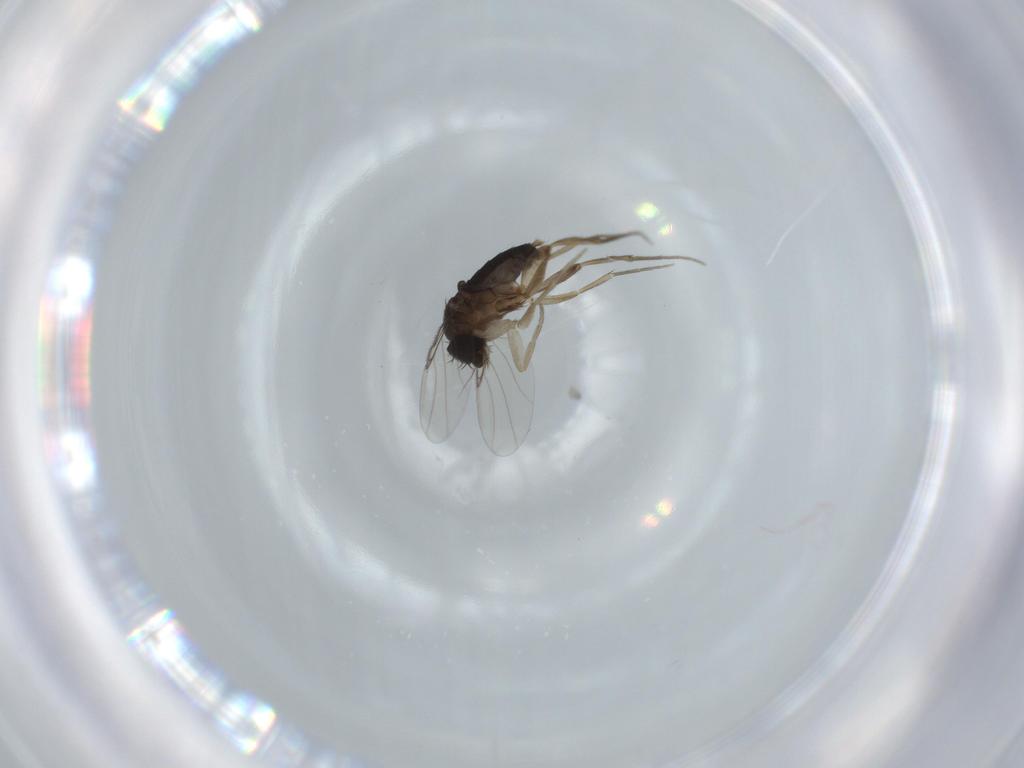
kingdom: Animalia
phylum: Arthropoda
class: Insecta
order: Diptera
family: Phoridae
